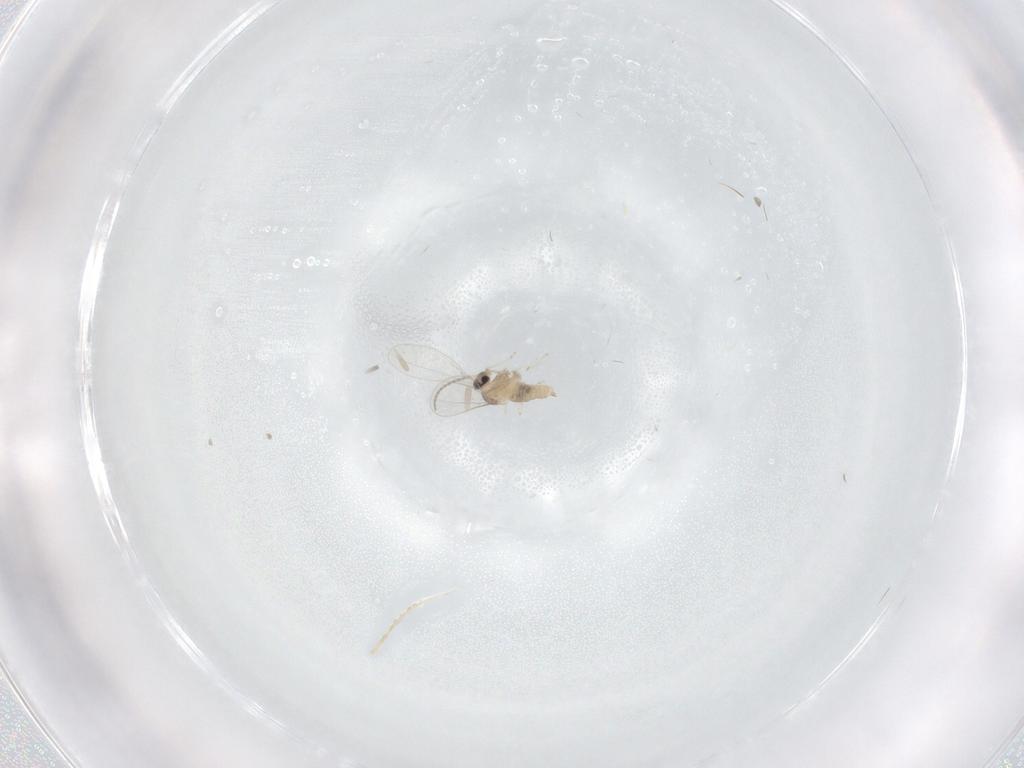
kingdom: Animalia
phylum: Arthropoda
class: Insecta
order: Diptera
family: Cecidomyiidae
